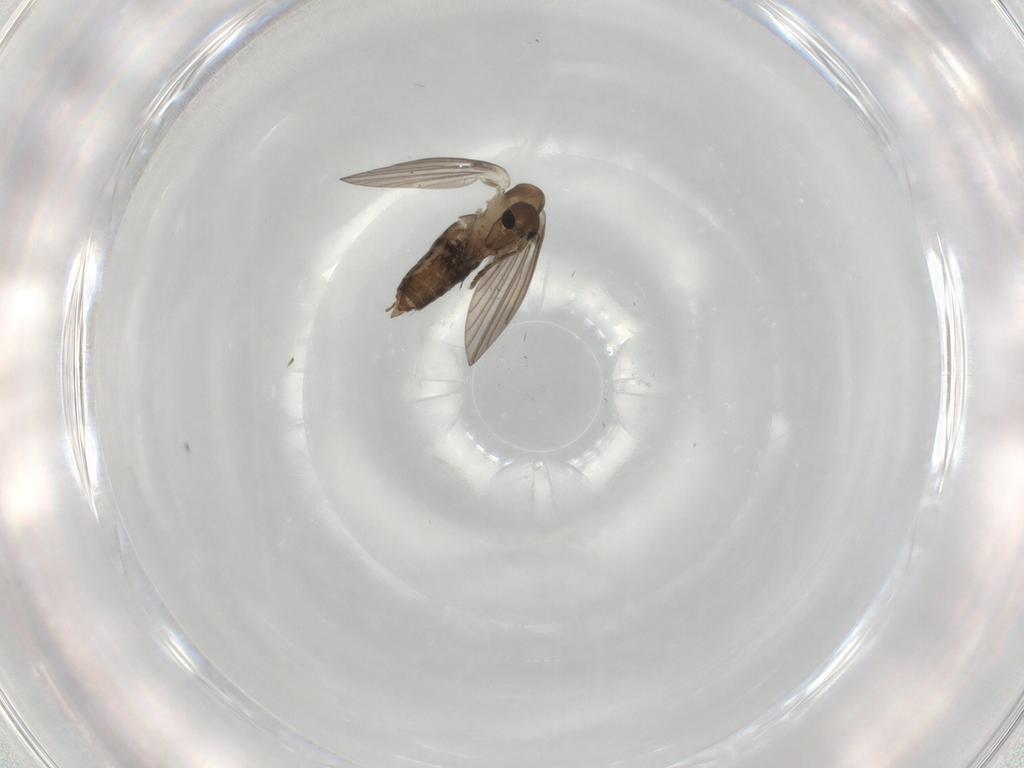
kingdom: Animalia
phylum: Arthropoda
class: Insecta
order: Diptera
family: Psychodidae
